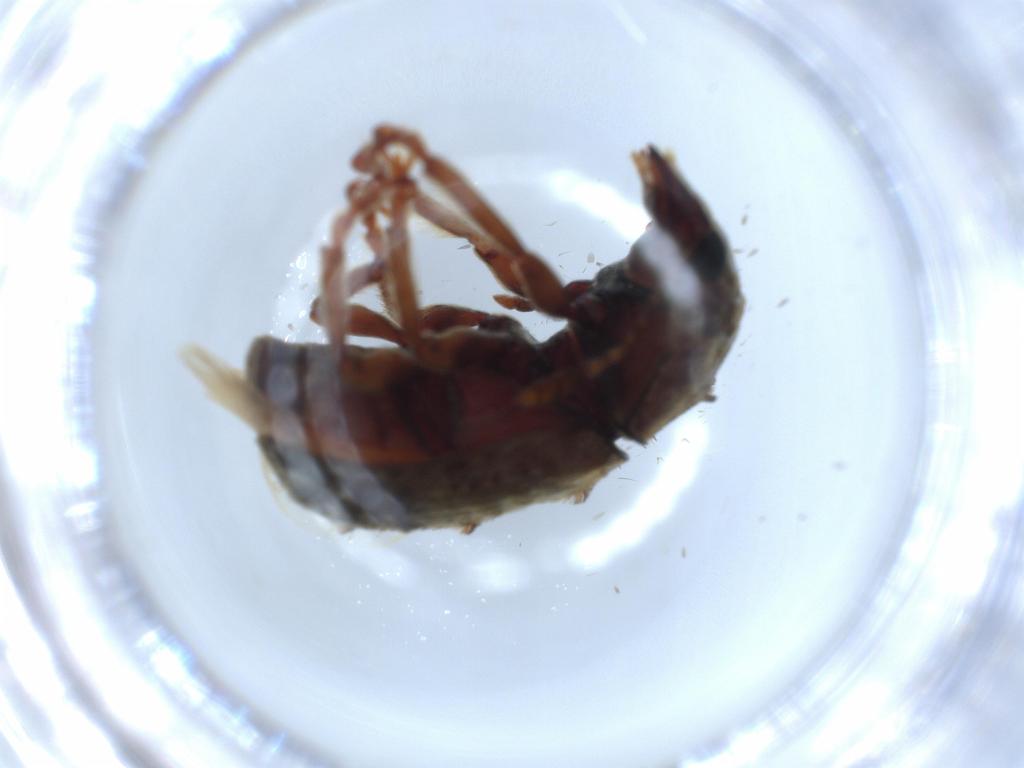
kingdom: Animalia
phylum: Arthropoda
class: Insecta
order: Coleoptera
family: Anthribidae
